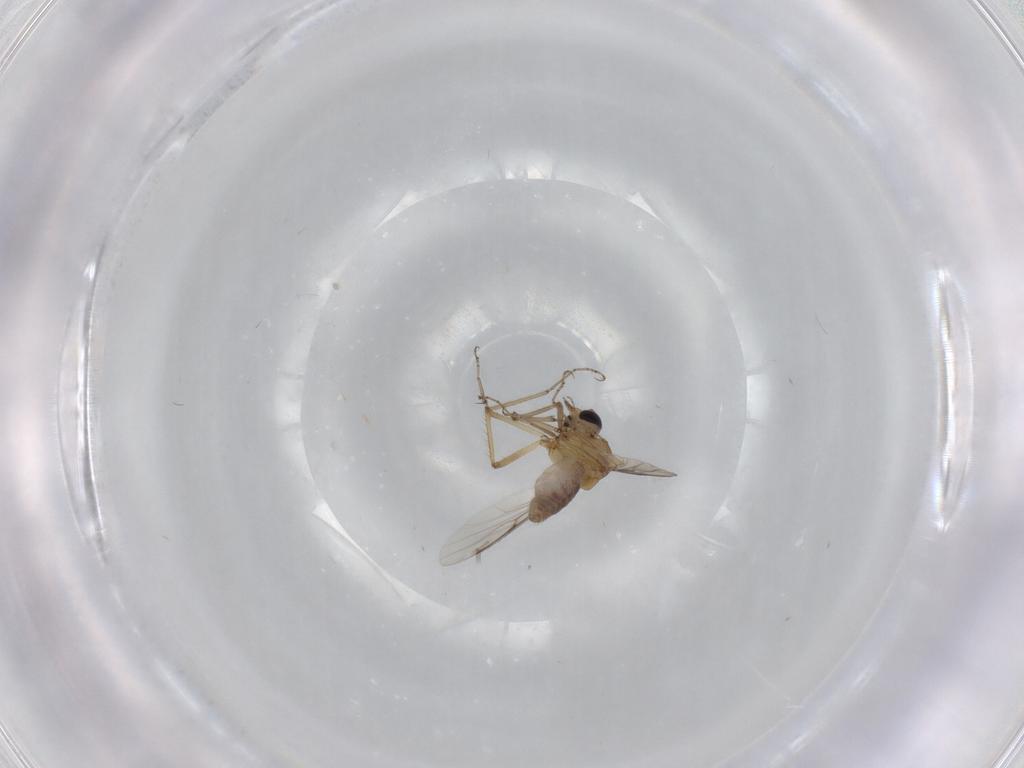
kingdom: Animalia
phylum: Arthropoda
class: Insecta
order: Diptera
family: Ceratopogonidae
